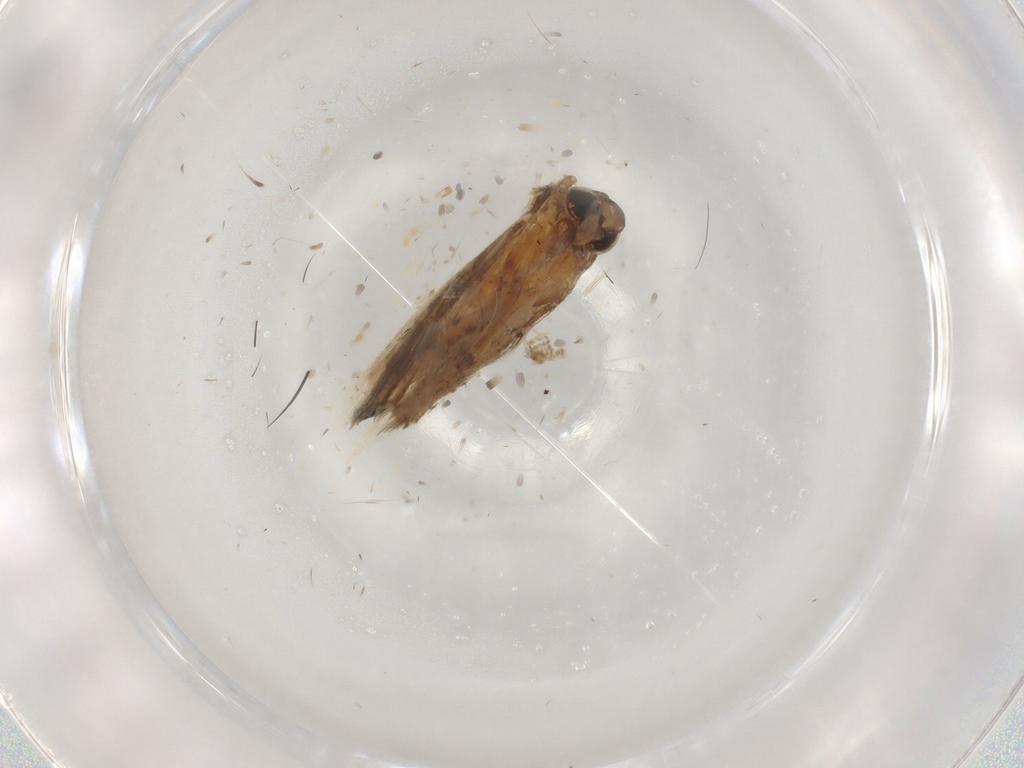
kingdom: Animalia
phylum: Arthropoda
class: Insecta
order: Lepidoptera
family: Cosmopterigidae
